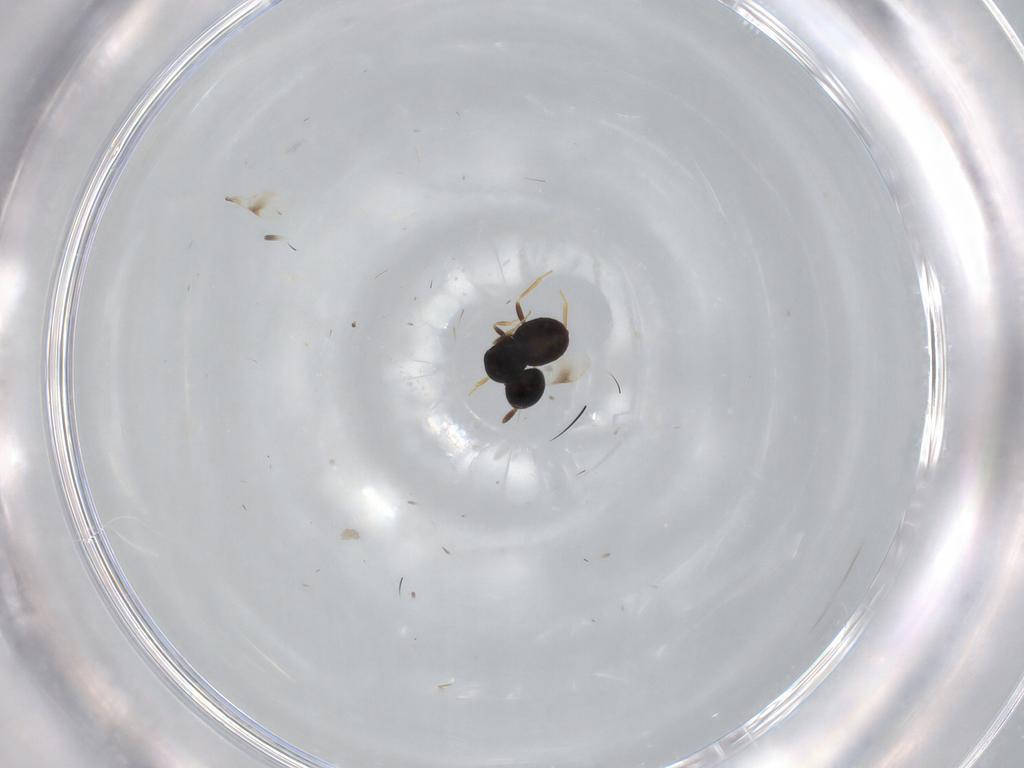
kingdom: Animalia
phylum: Arthropoda
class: Insecta
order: Hymenoptera
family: Scelionidae
